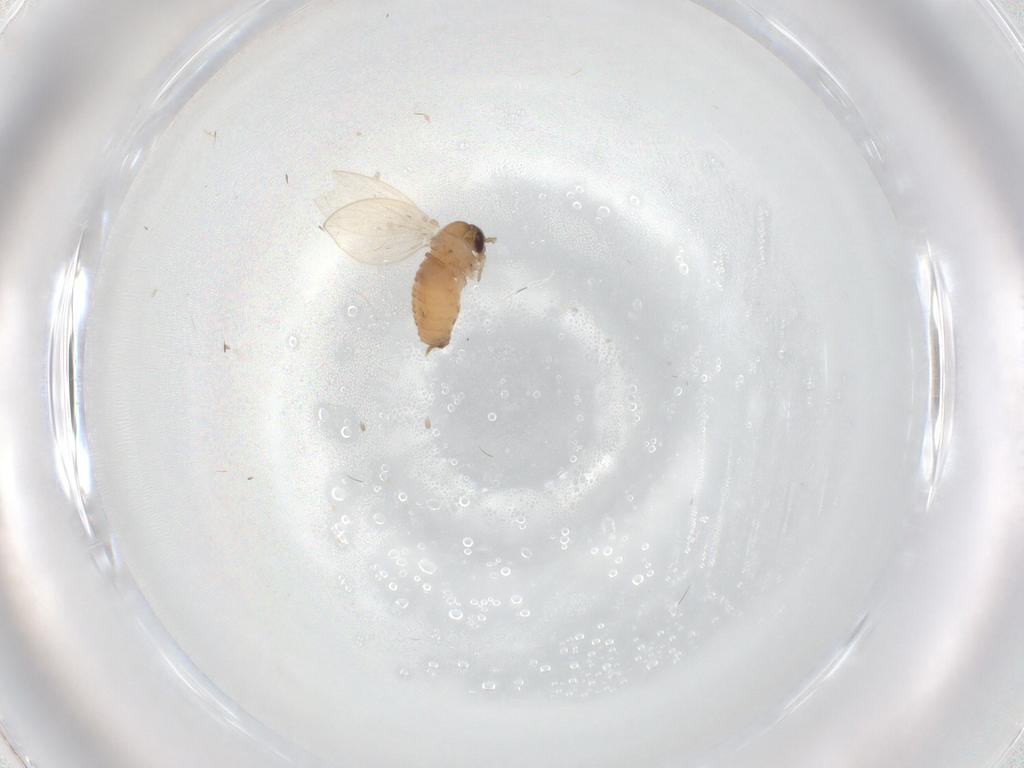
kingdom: Animalia
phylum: Arthropoda
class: Insecta
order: Diptera
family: Psychodidae
